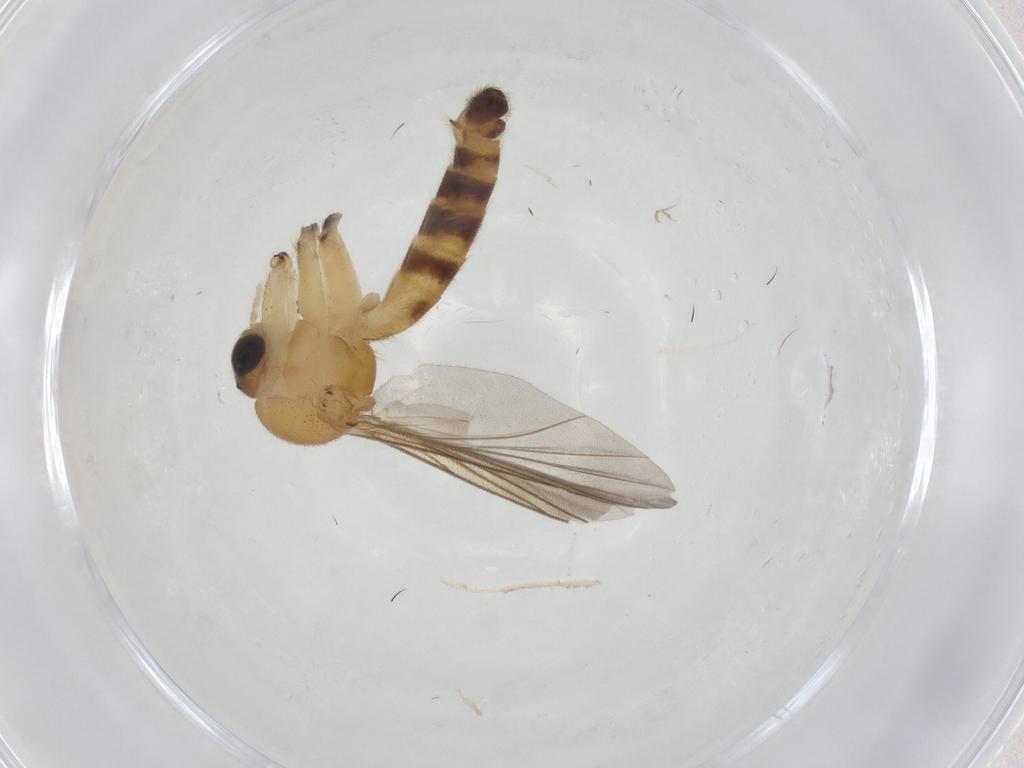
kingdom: Animalia
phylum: Arthropoda
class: Insecta
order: Diptera
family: Mycetophilidae
